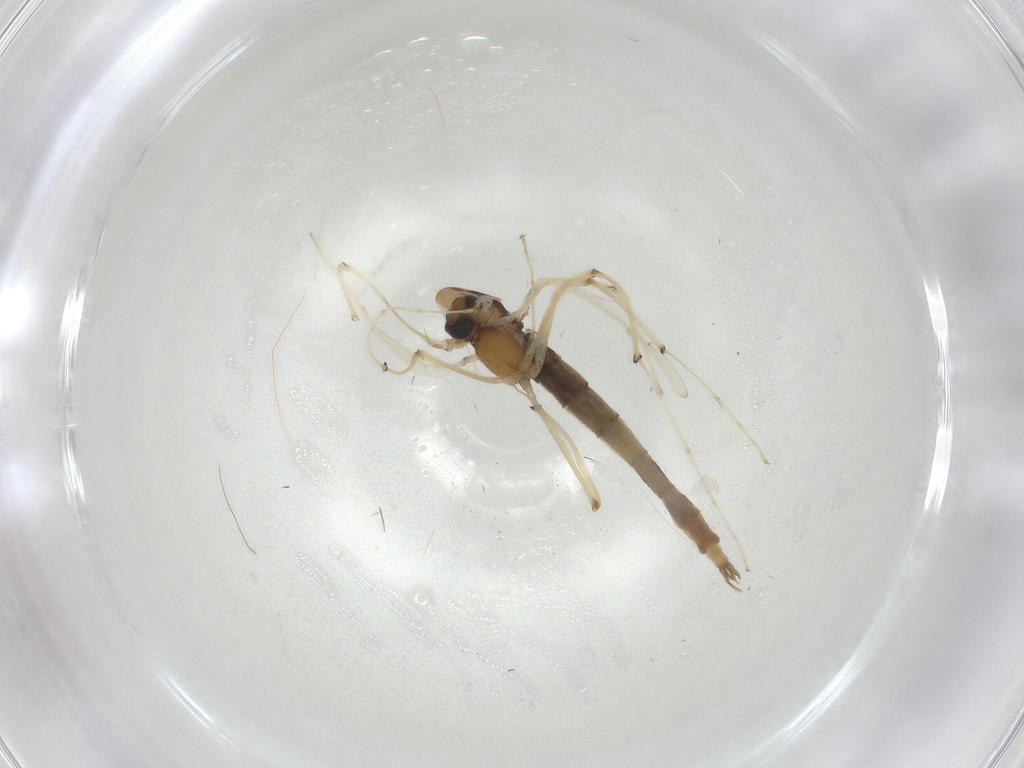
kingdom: Animalia
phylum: Arthropoda
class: Insecta
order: Diptera
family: Chironomidae
